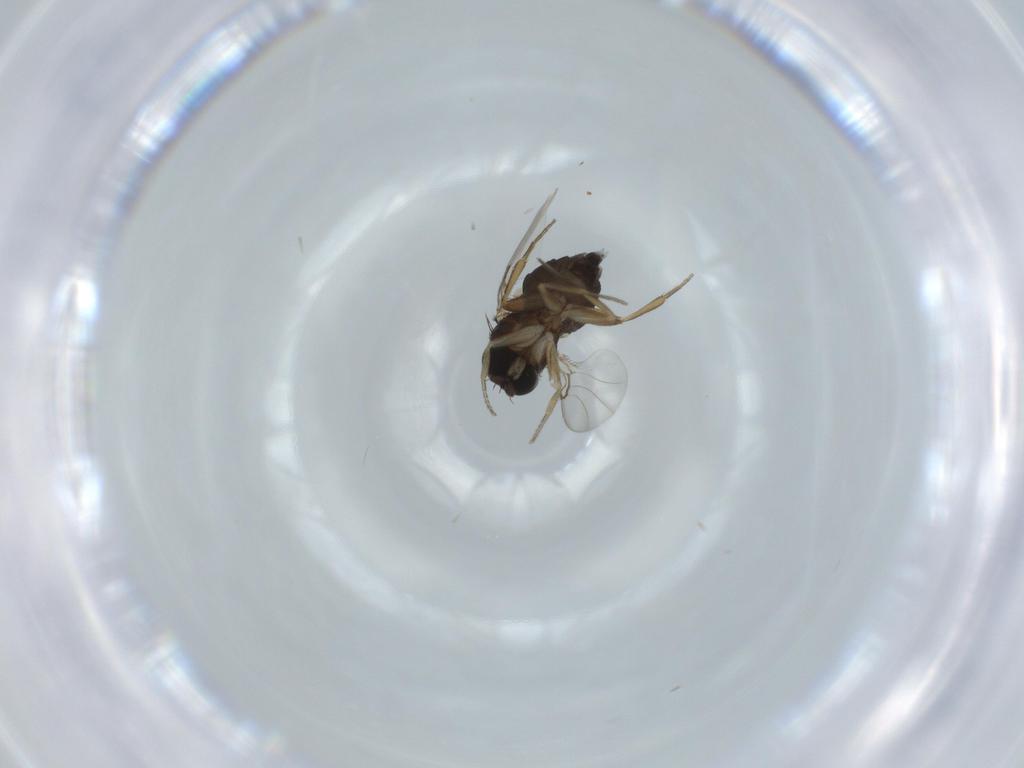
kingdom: Animalia
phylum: Arthropoda
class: Insecta
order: Diptera
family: Phoridae
